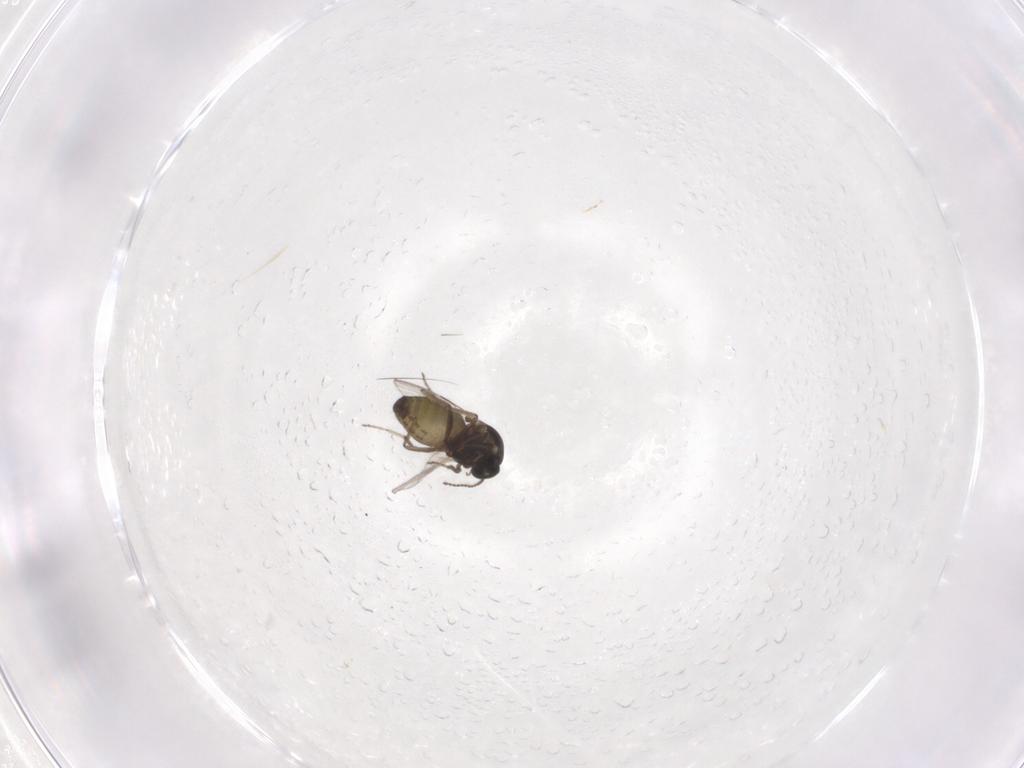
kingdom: Animalia
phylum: Arthropoda
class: Insecta
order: Diptera
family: Ceratopogonidae
